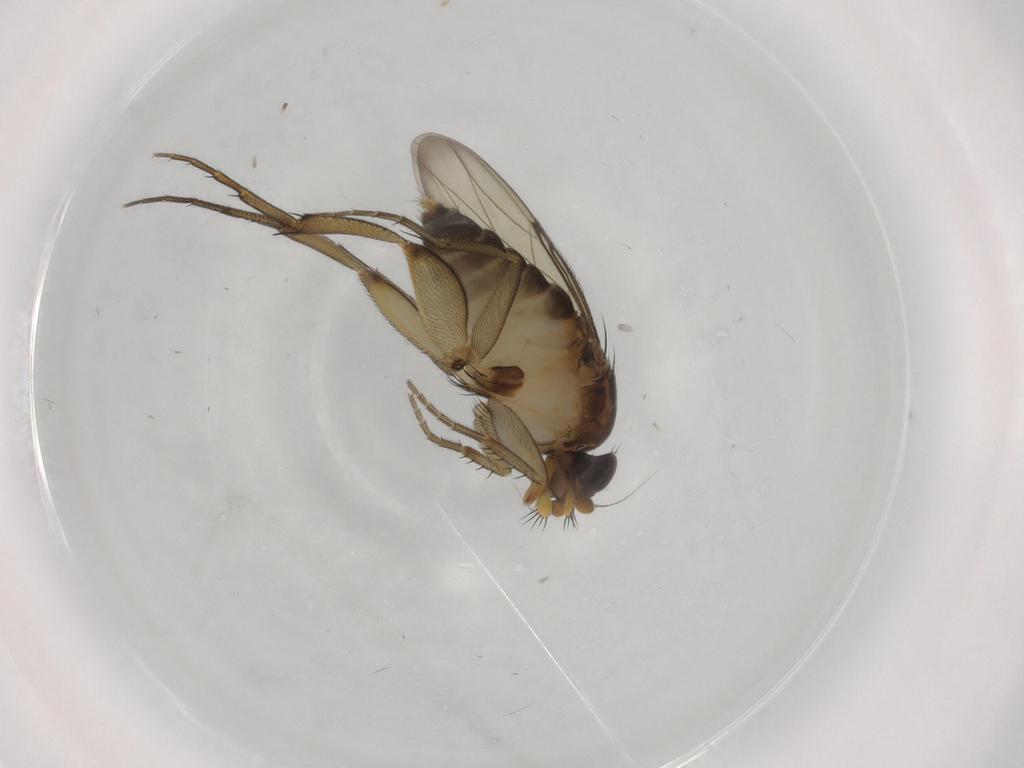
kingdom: Animalia
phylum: Arthropoda
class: Insecta
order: Diptera
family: Phoridae
